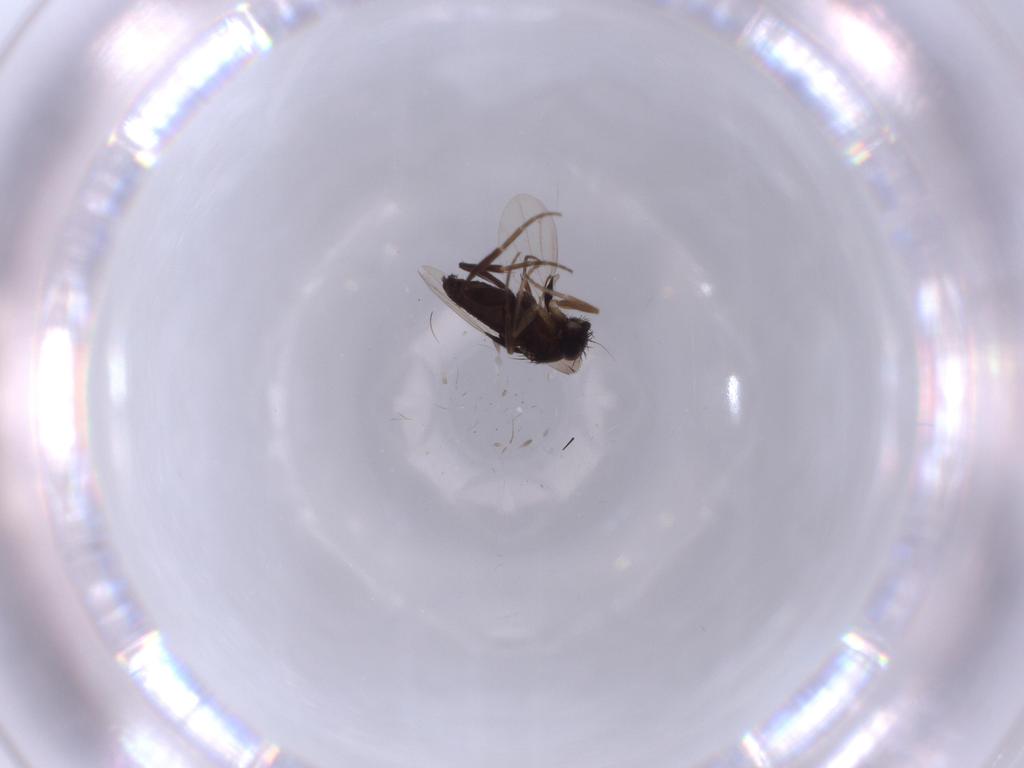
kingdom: Animalia
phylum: Arthropoda
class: Insecta
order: Diptera
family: Phoridae
